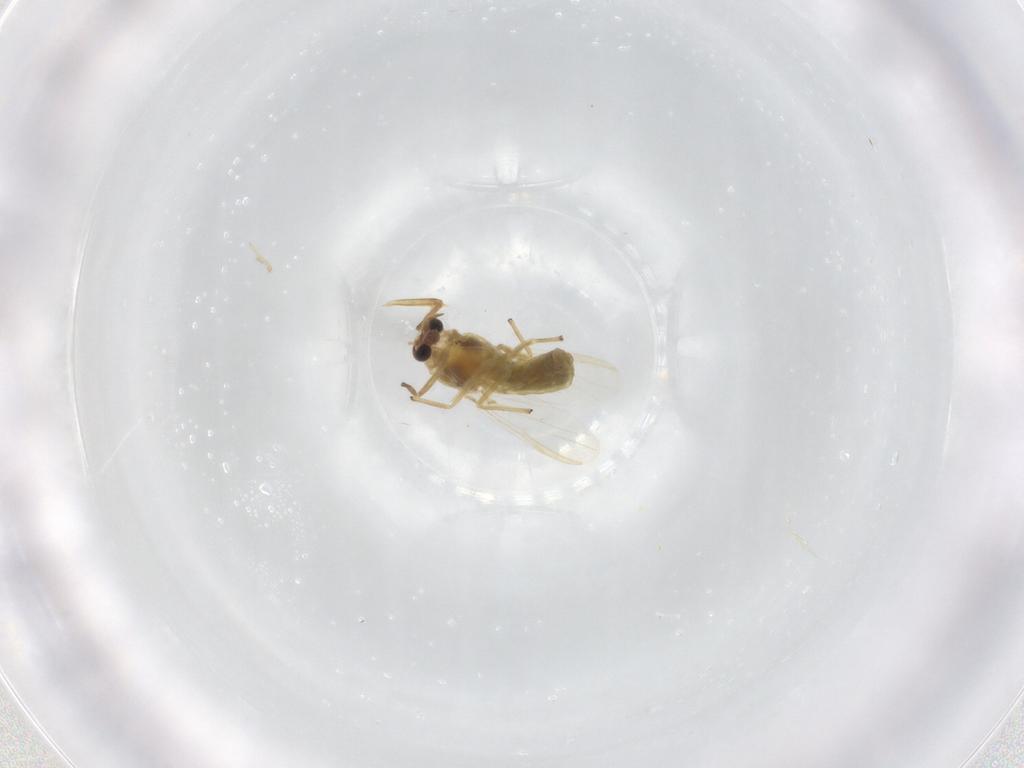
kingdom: Animalia
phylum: Arthropoda
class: Insecta
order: Diptera
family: Chironomidae
